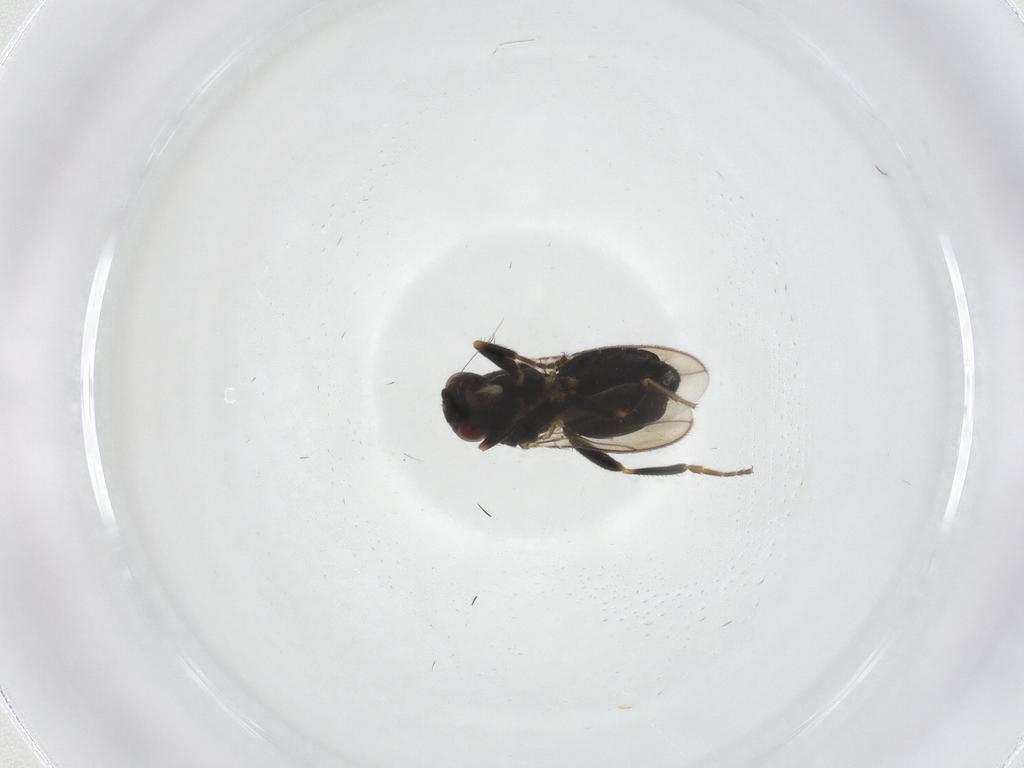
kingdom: Animalia
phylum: Arthropoda
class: Insecta
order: Diptera
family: Sphaeroceridae
